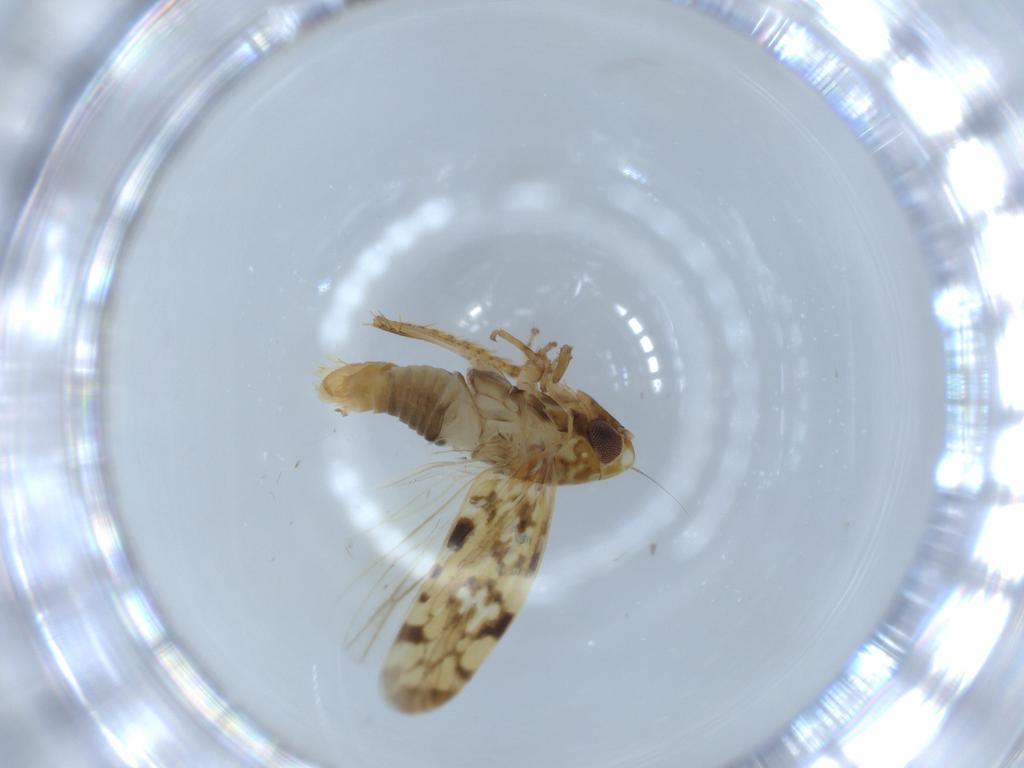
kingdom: Animalia
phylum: Arthropoda
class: Insecta
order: Hemiptera
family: Cicadellidae
